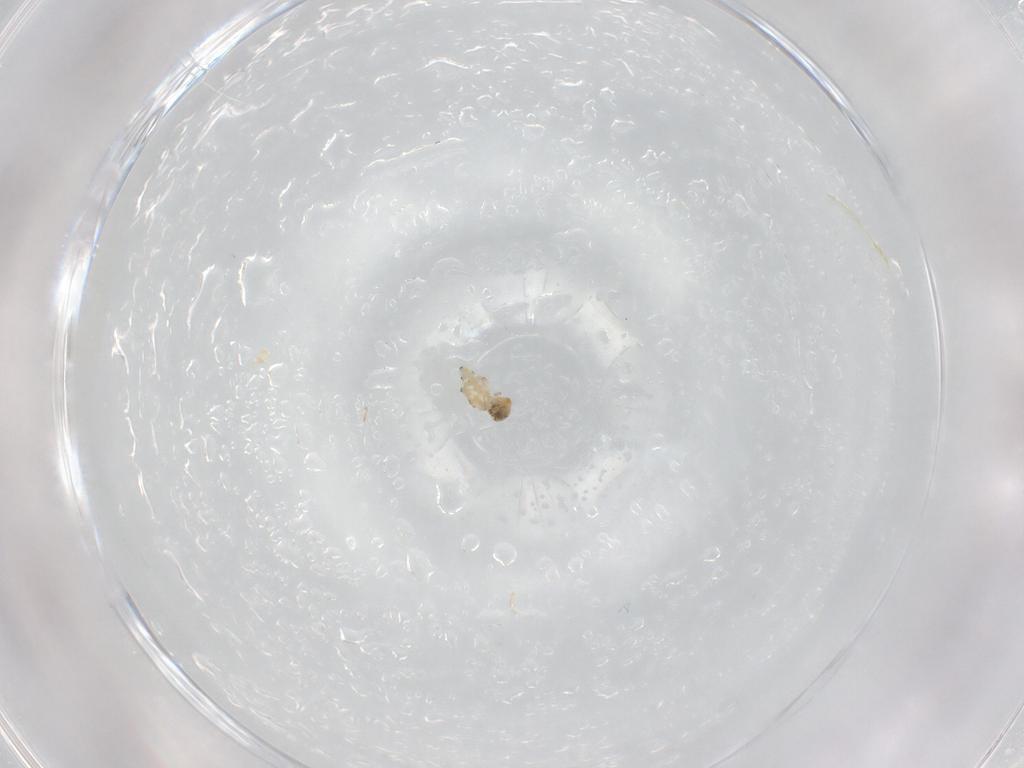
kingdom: Animalia
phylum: Arthropoda
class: Collembola
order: Symphypleona
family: Bourletiellidae
